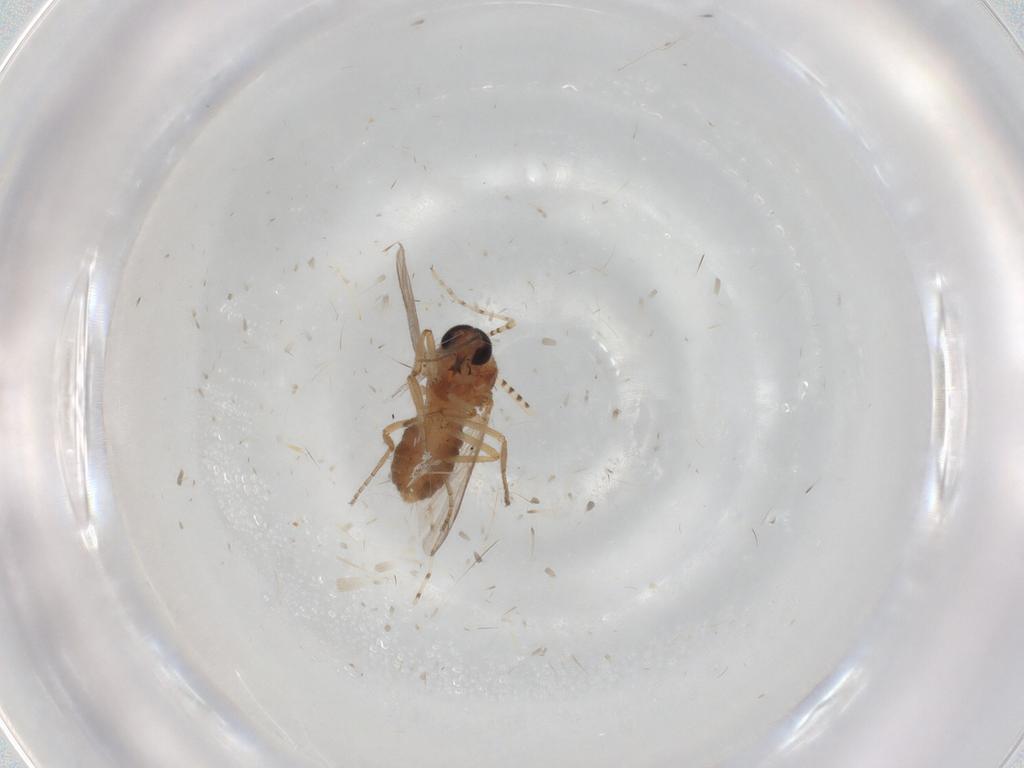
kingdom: Animalia
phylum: Arthropoda
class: Insecta
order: Diptera
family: Ceratopogonidae
